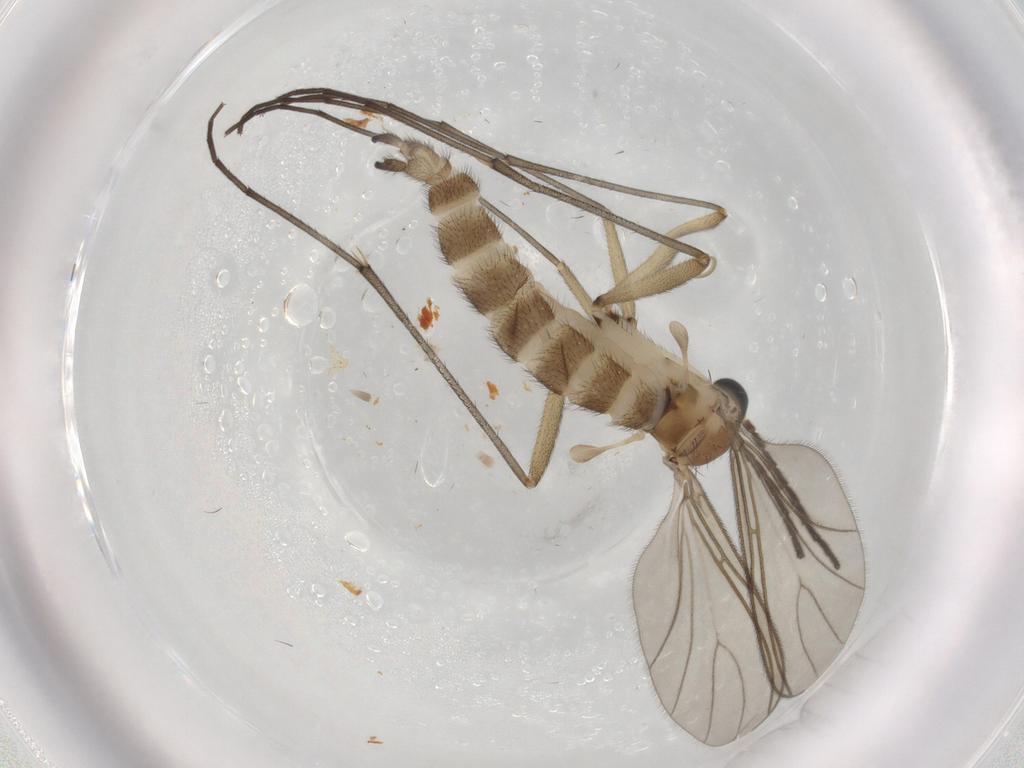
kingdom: Animalia
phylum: Arthropoda
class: Insecta
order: Diptera
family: Sciaridae
